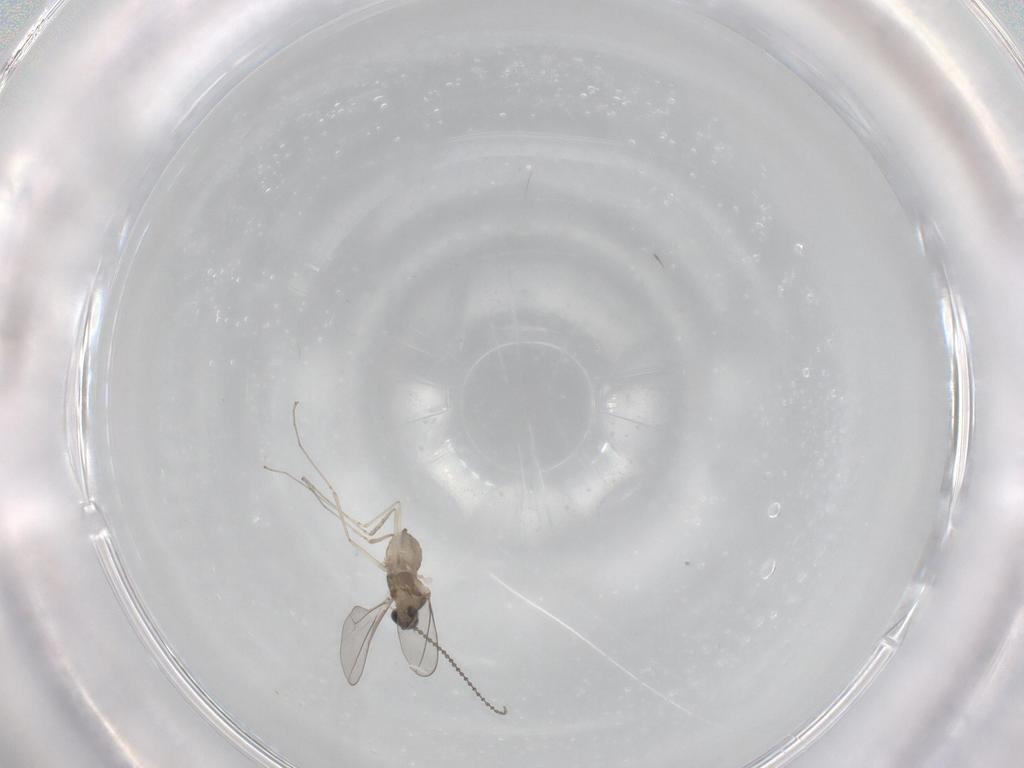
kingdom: Animalia
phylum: Arthropoda
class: Insecta
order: Diptera
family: Cecidomyiidae
